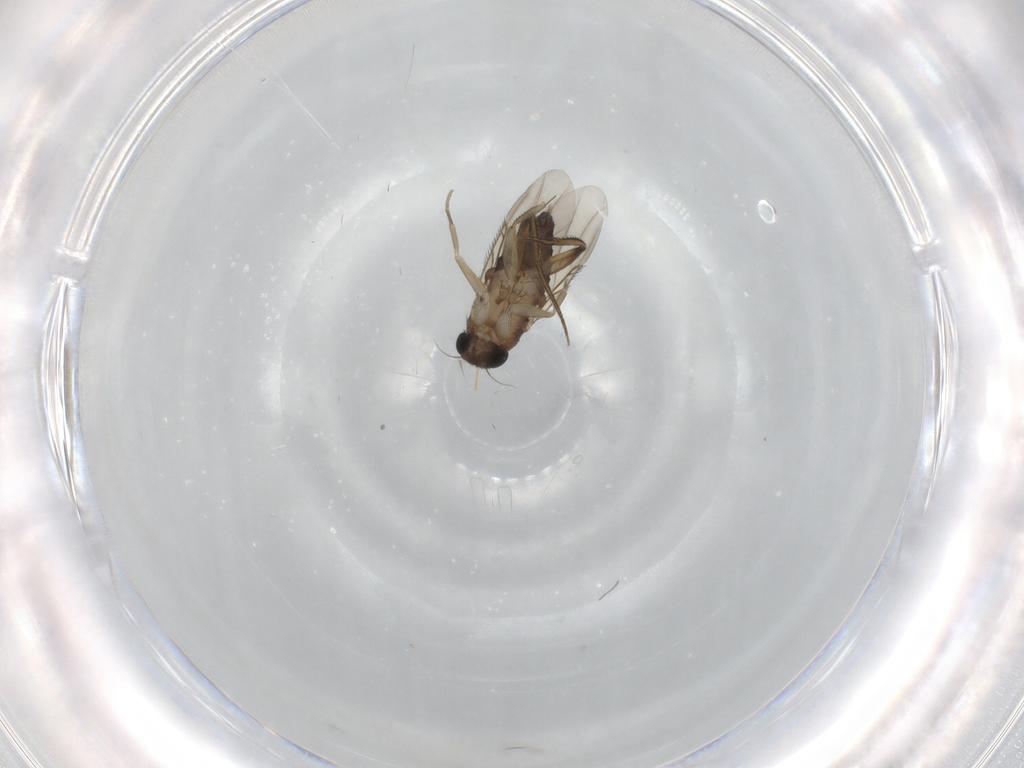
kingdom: Animalia
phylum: Arthropoda
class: Insecta
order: Diptera
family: Phoridae
